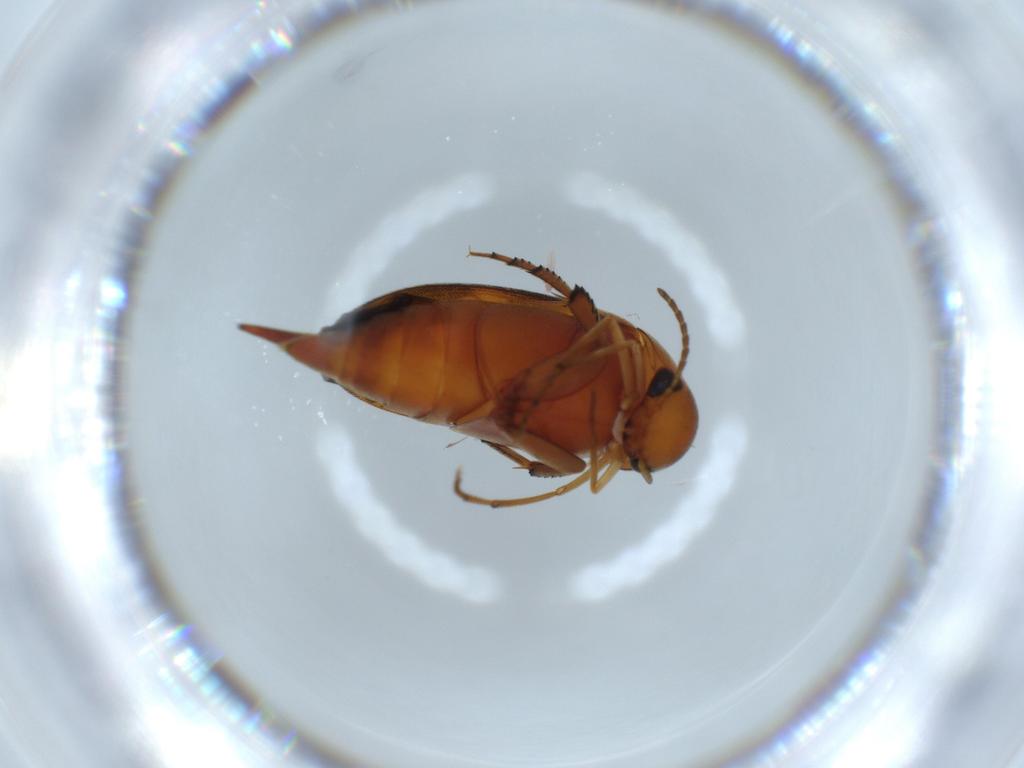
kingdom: Animalia
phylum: Arthropoda
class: Insecta
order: Coleoptera
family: Mordellidae
